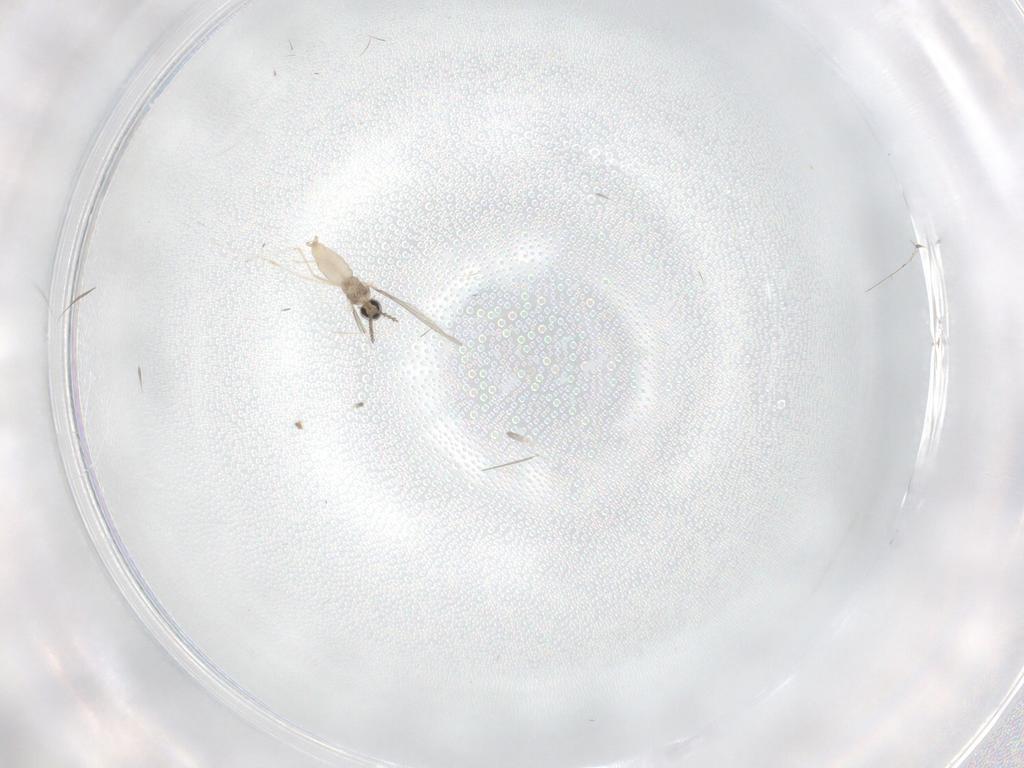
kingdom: Animalia
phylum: Arthropoda
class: Insecta
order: Diptera
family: Cecidomyiidae
